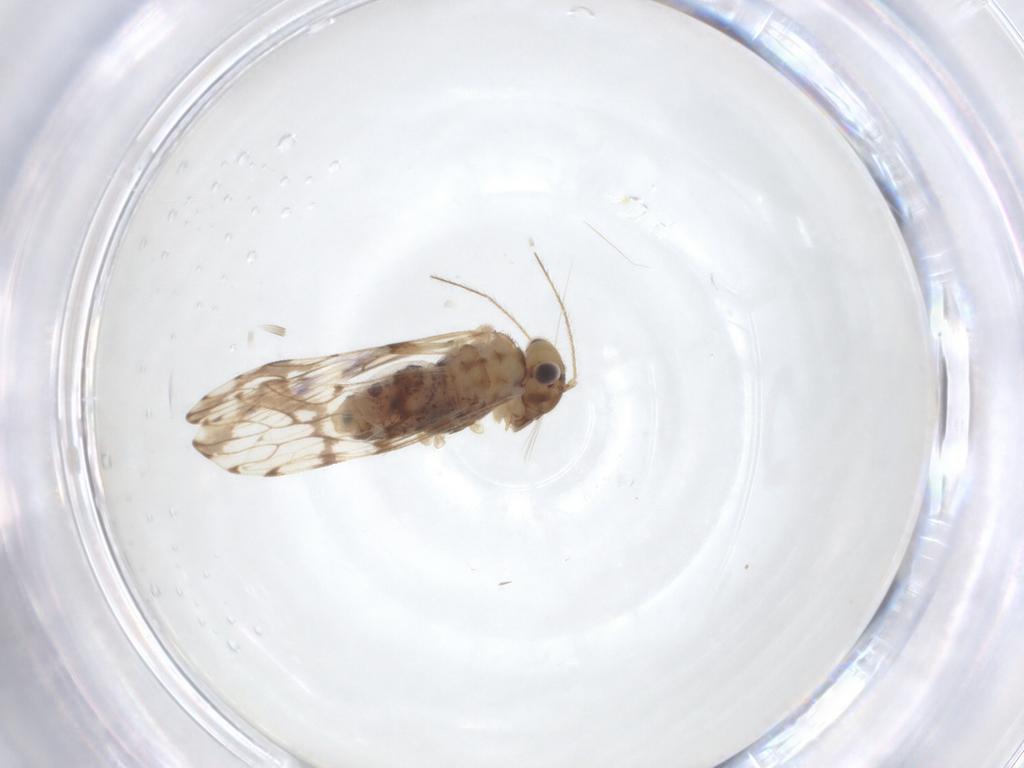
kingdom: Animalia
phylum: Arthropoda
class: Insecta
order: Psocodea
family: Epipsocidae
